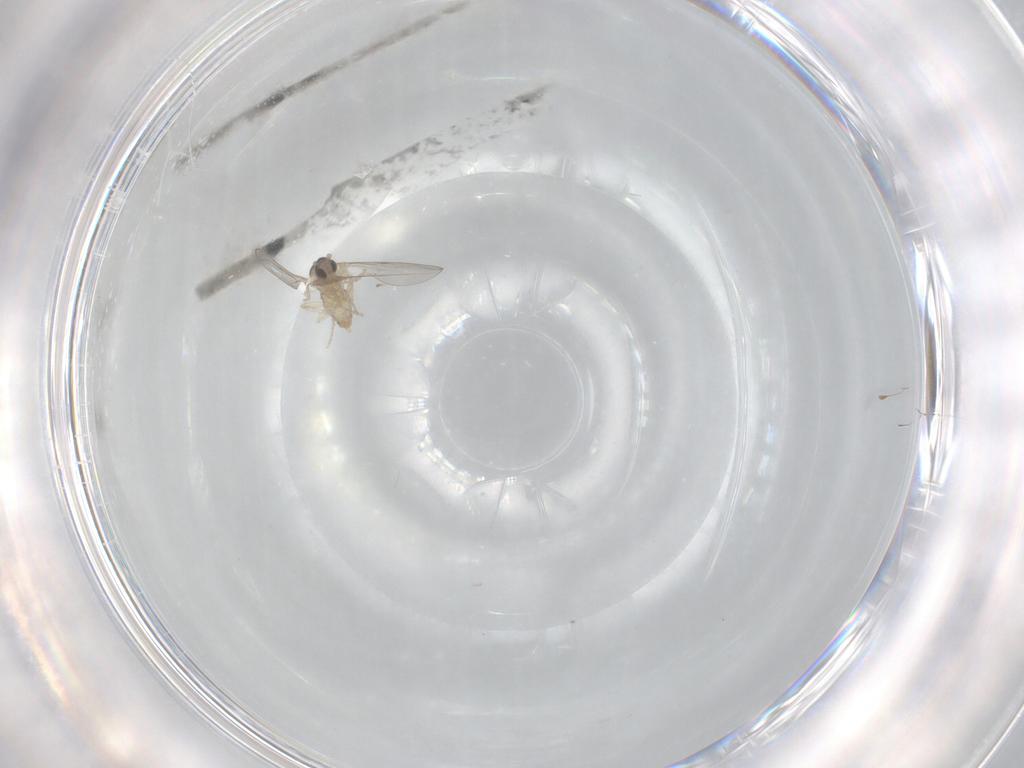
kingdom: Animalia
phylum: Arthropoda
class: Insecta
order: Diptera
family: Cecidomyiidae
